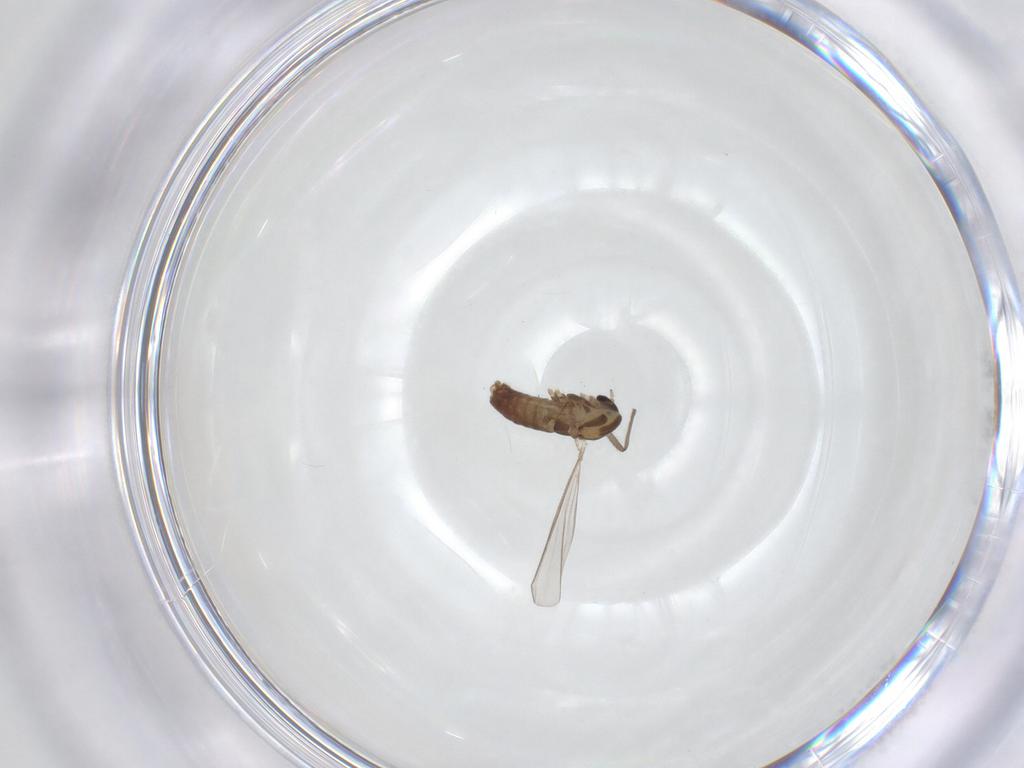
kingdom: Animalia
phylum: Arthropoda
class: Insecta
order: Diptera
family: Chironomidae
